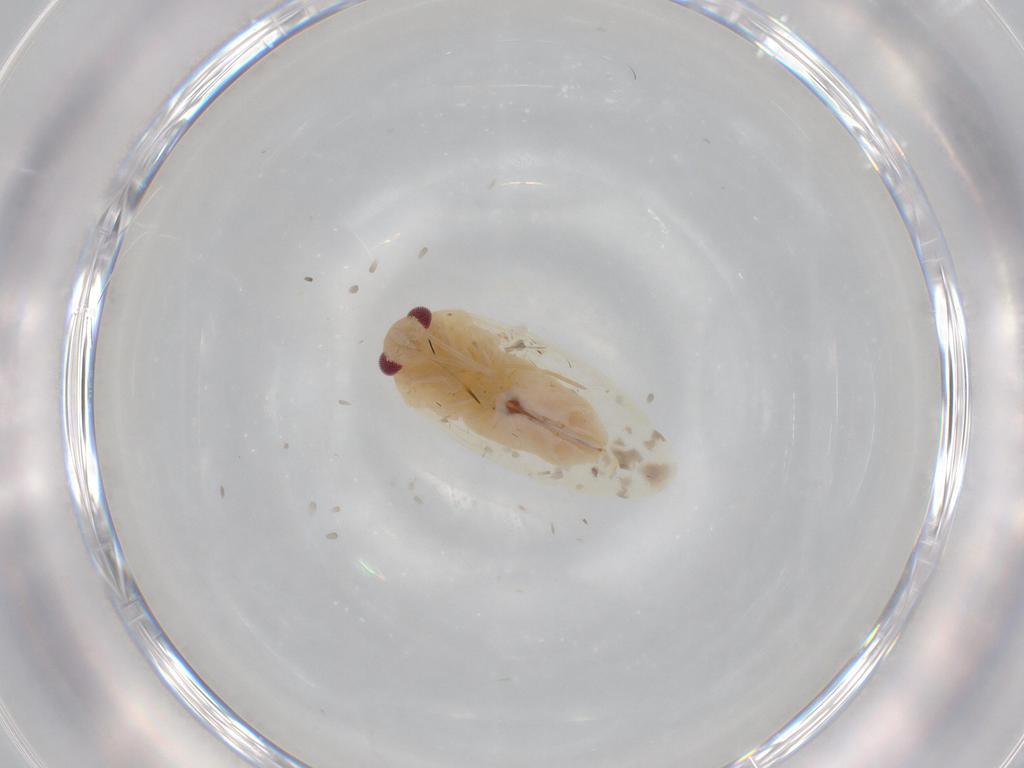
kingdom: Animalia
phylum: Arthropoda
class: Insecta
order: Hemiptera
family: Miridae
